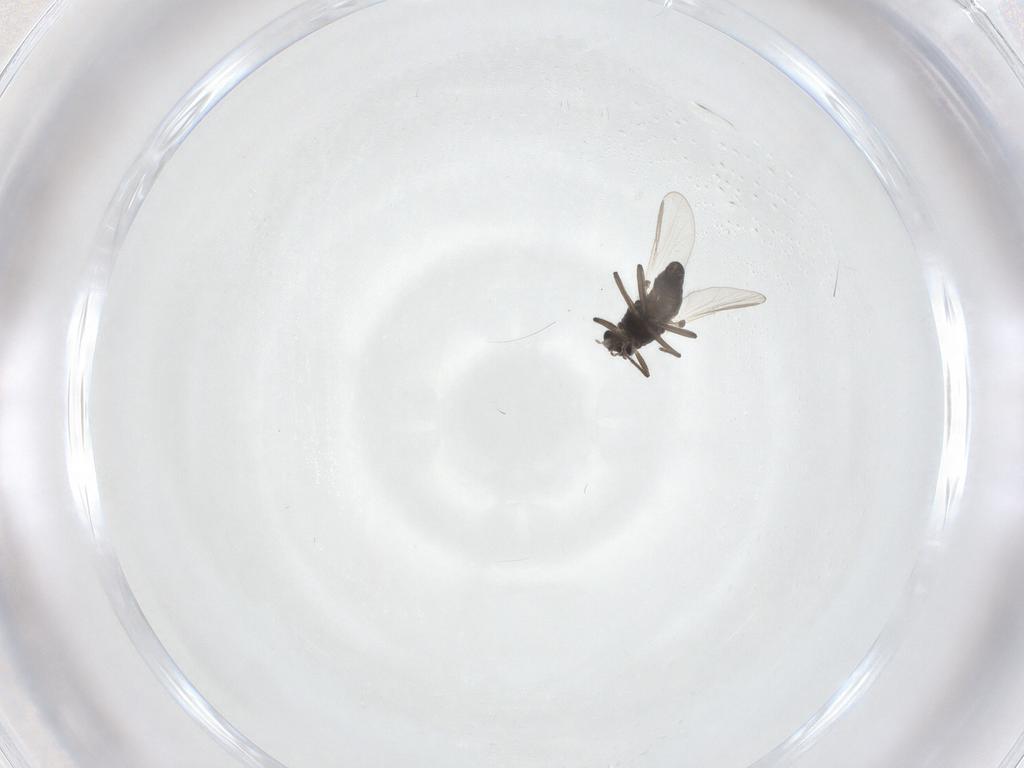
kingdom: Animalia
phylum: Arthropoda
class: Insecta
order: Diptera
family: Chironomidae
